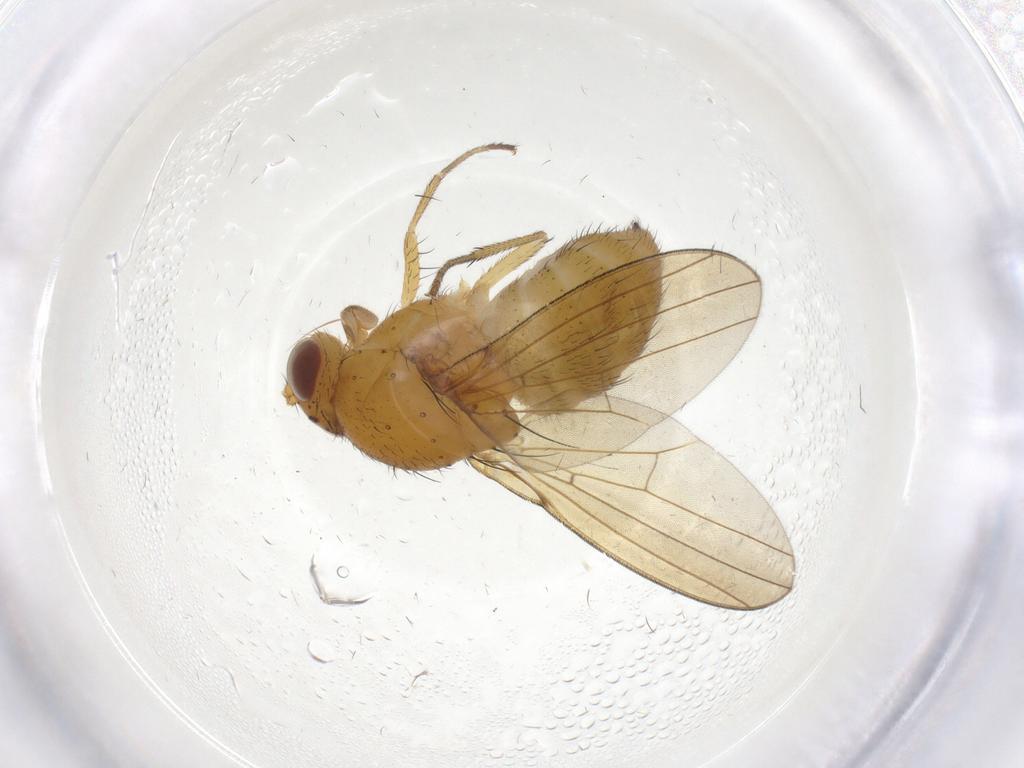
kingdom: Animalia
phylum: Arthropoda
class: Insecta
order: Diptera
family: Lauxaniidae
